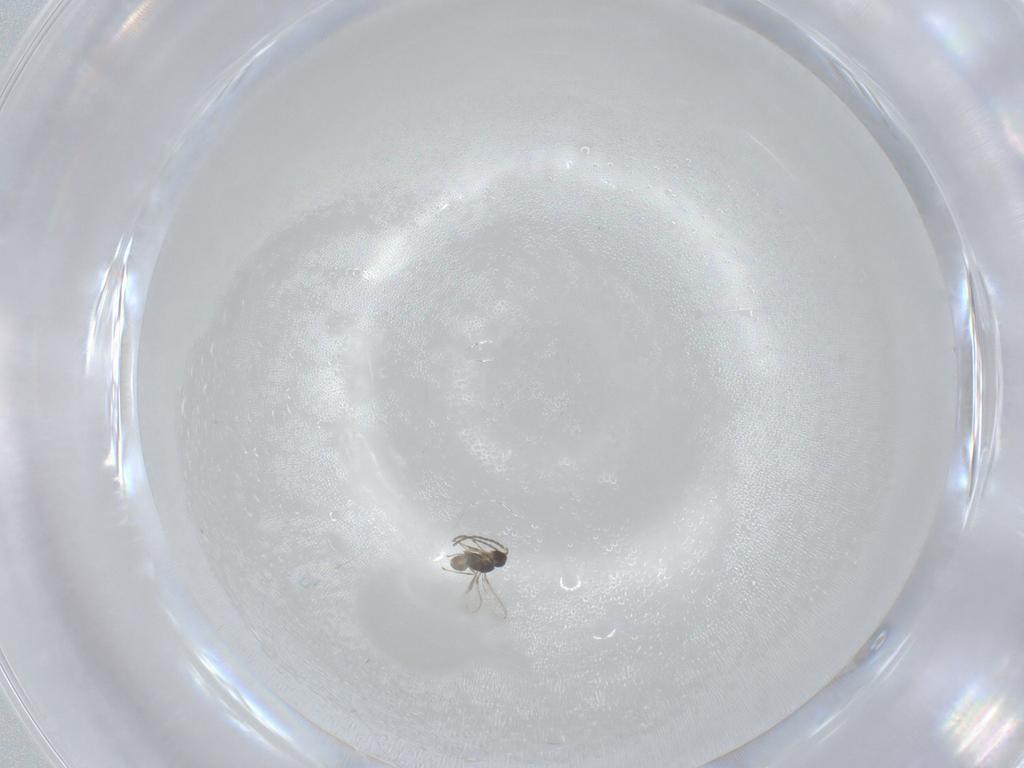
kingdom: Animalia
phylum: Arthropoda
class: Insecta
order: Hymenoptera
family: Mymaridae
